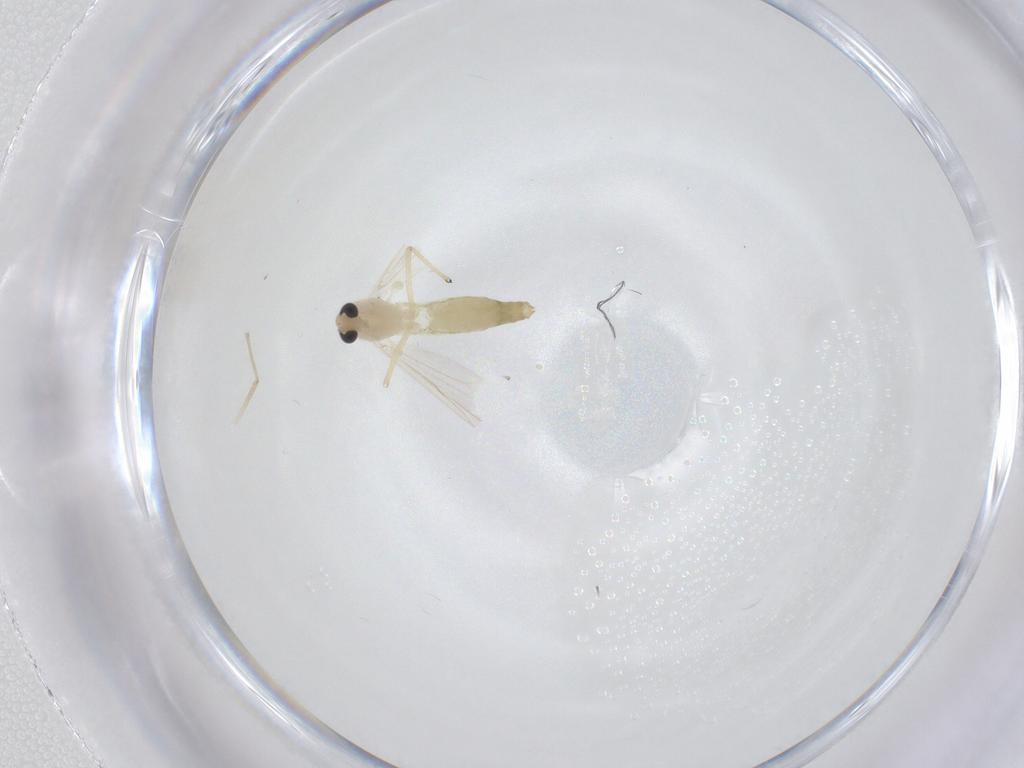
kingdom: Animalia
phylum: Arthropoda
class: Insecta
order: Diptera
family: Chironomidae
